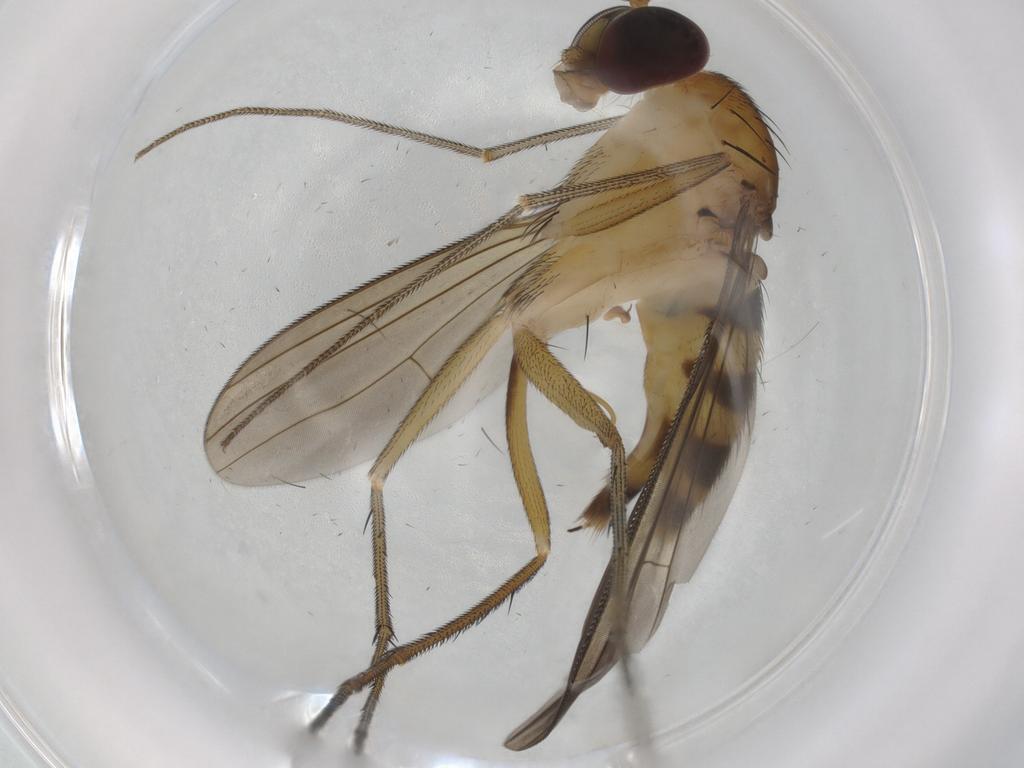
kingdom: Animalia
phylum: Arthropoda
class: Insecta
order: Diptera
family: Dolichopodidae
